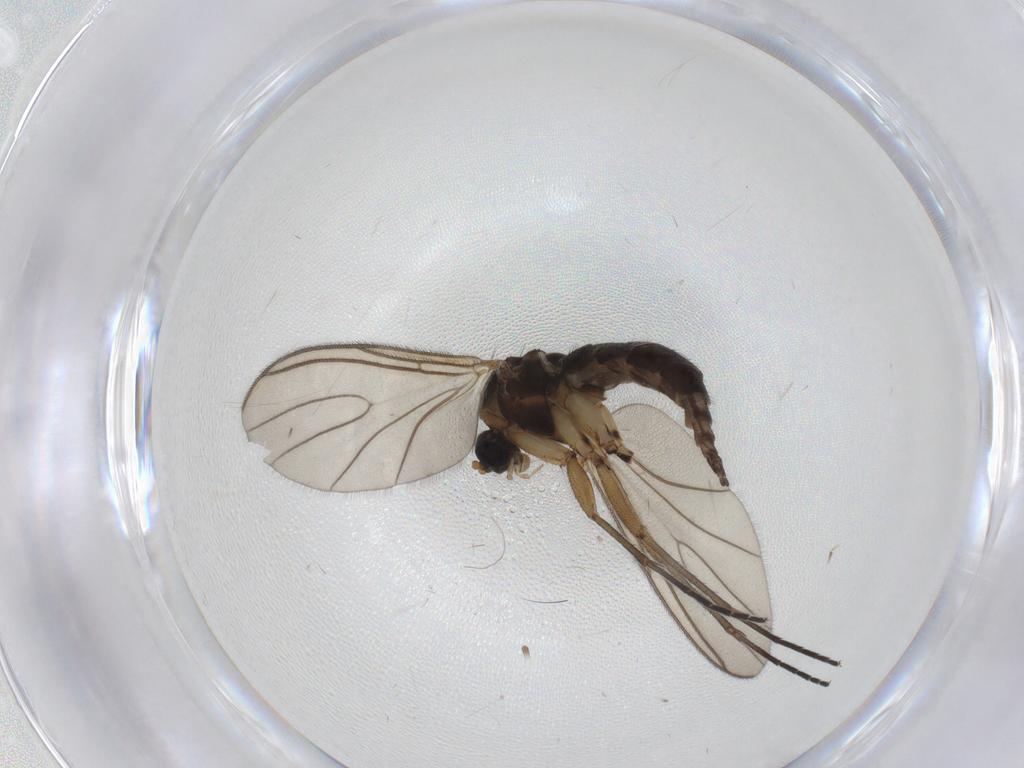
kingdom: Animalia
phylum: Arthropoda
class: Insecta
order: Diptera
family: Sciaridae
